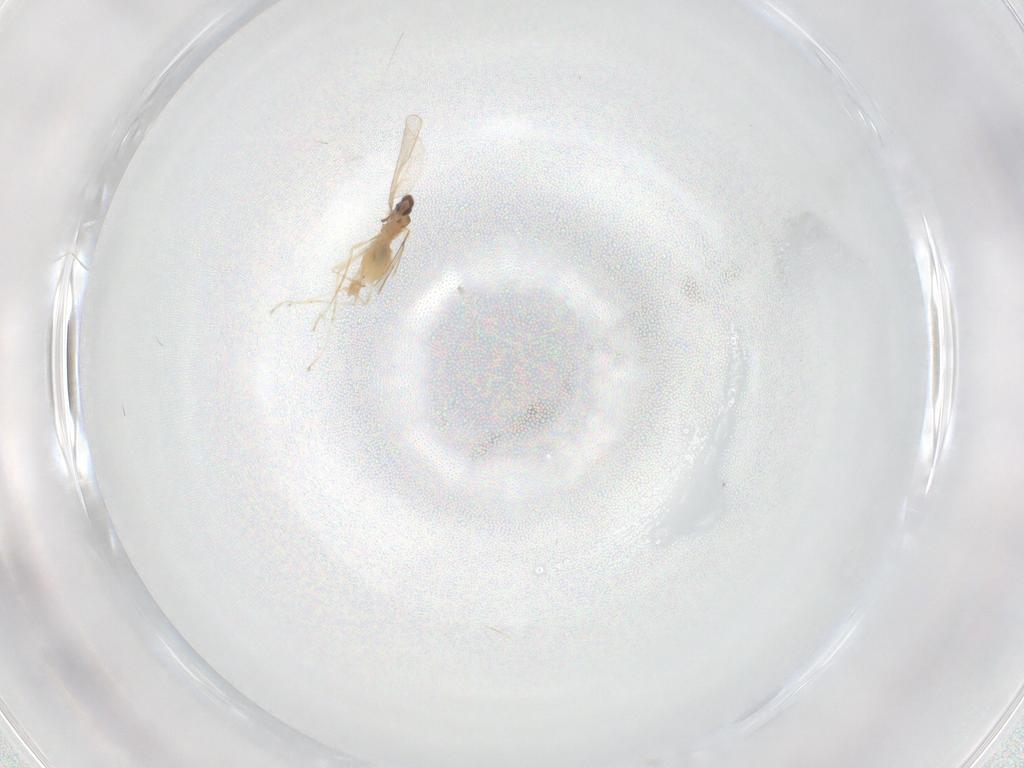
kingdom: Animalia
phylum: Arthropoda
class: Insecta
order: Diptera
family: Cecidomyiidae
